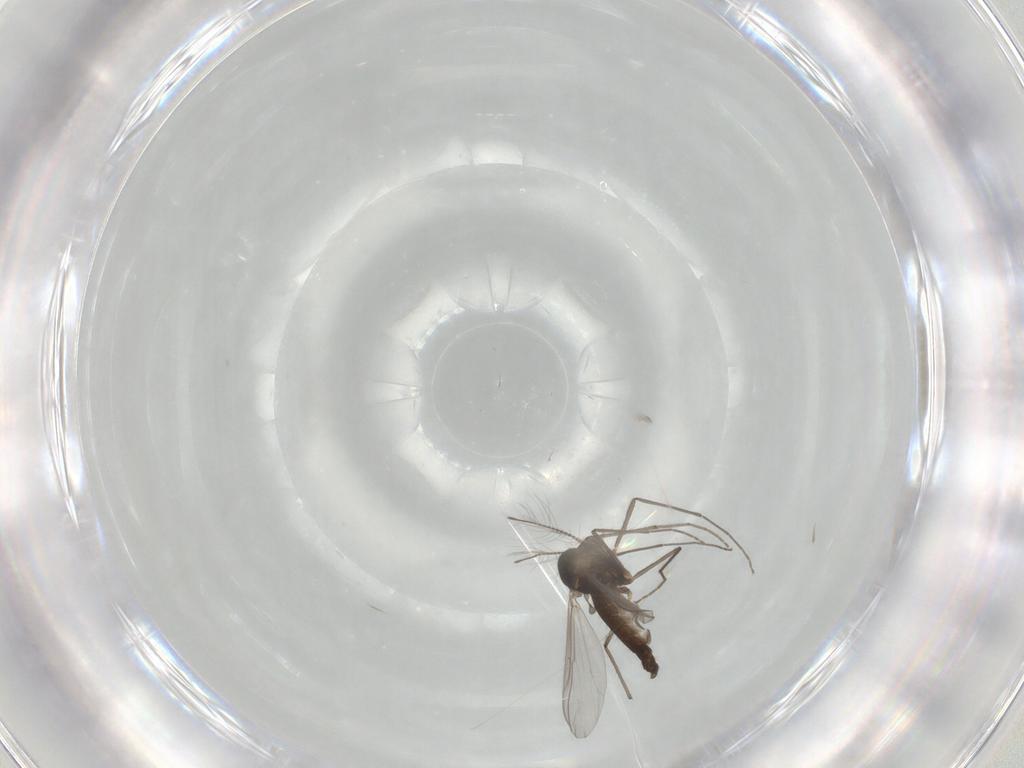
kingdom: Animalia
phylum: Arthropoda
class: Insecta
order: Diptera
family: Chironomidae
